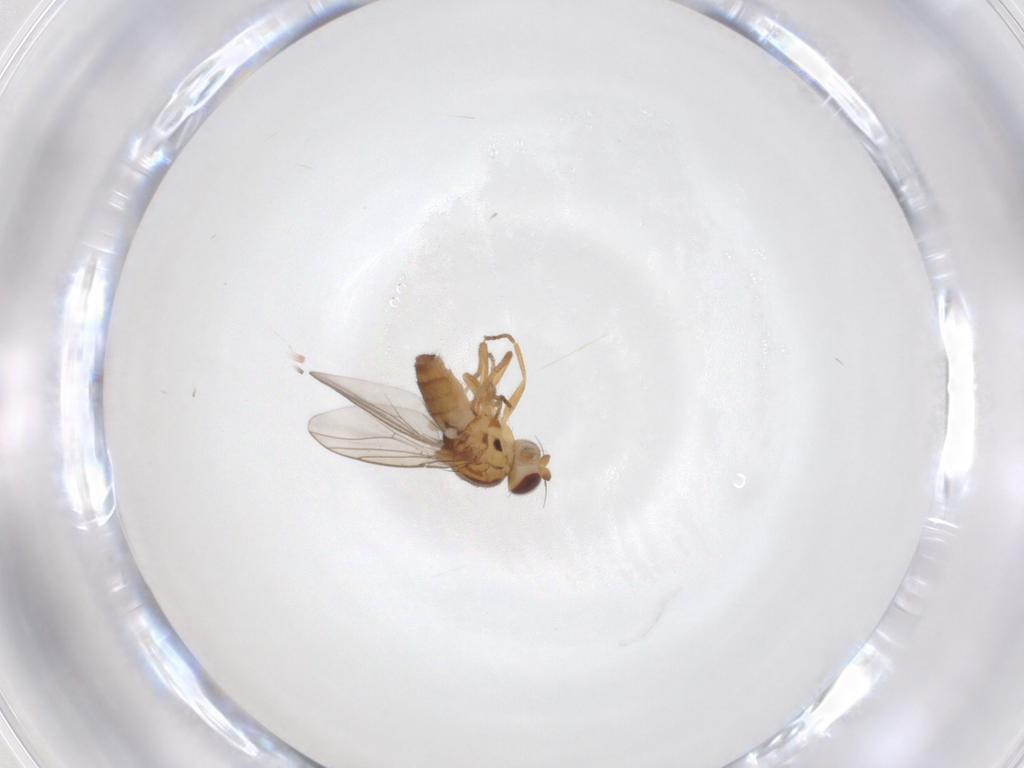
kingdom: Animalia
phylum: Arthropoda
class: Insecta
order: Diptera
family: Chloropidae
